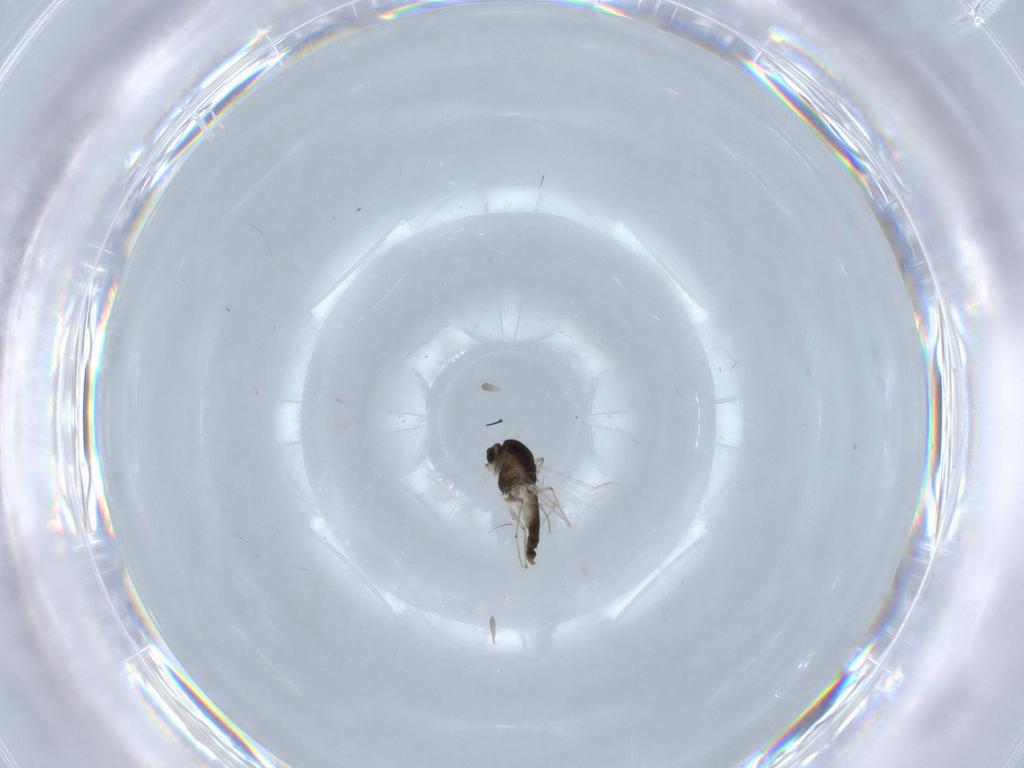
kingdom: Animalia
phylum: Arthropoda
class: Insecta
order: Diptera
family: Chironomidae
